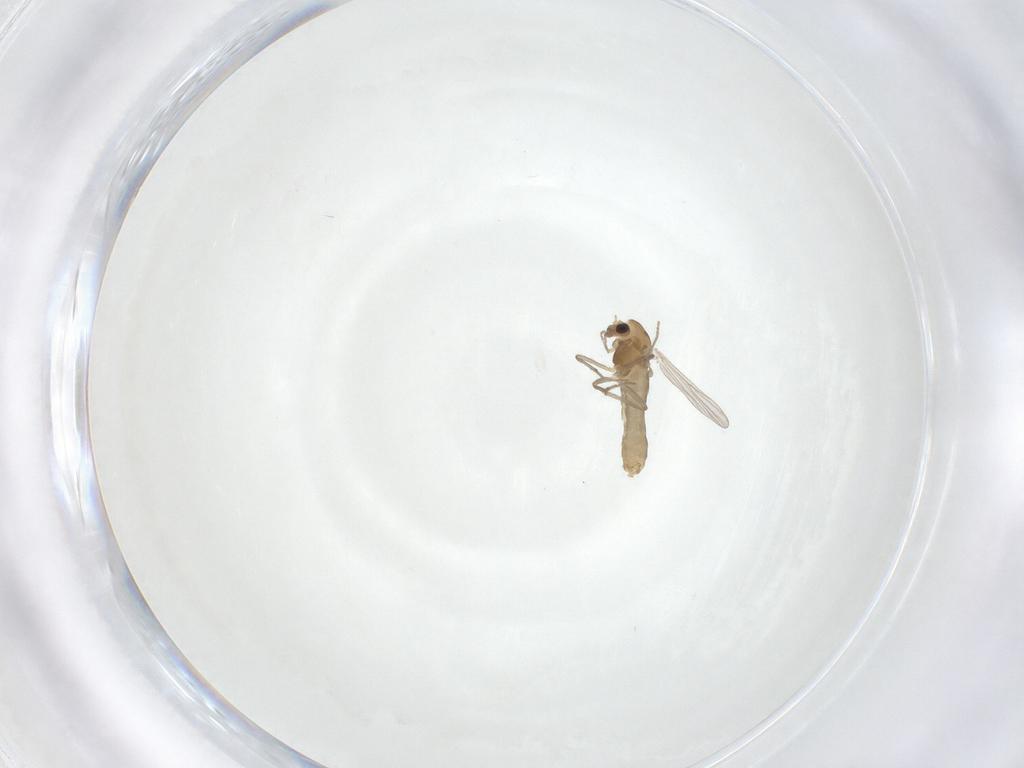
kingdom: Animalia
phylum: Arthropoda
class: Insecta
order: Diptera
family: Chironomidae
